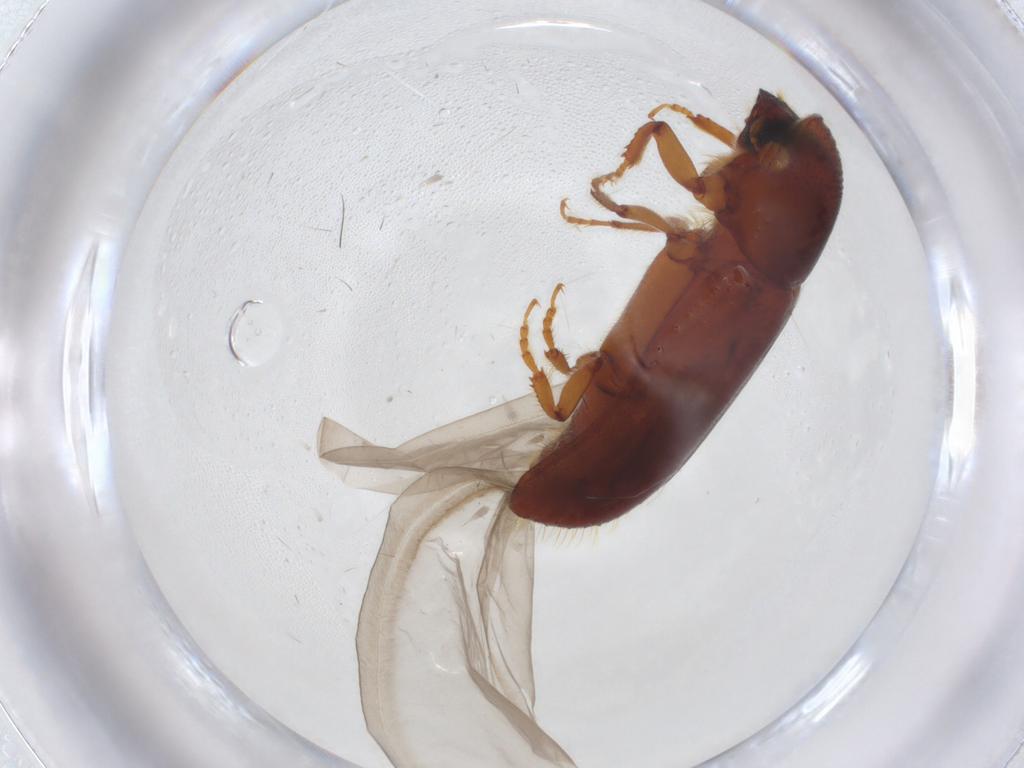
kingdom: Animalia
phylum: Arthropoda
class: Insecta
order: Coleoptera
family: Curculionidae
